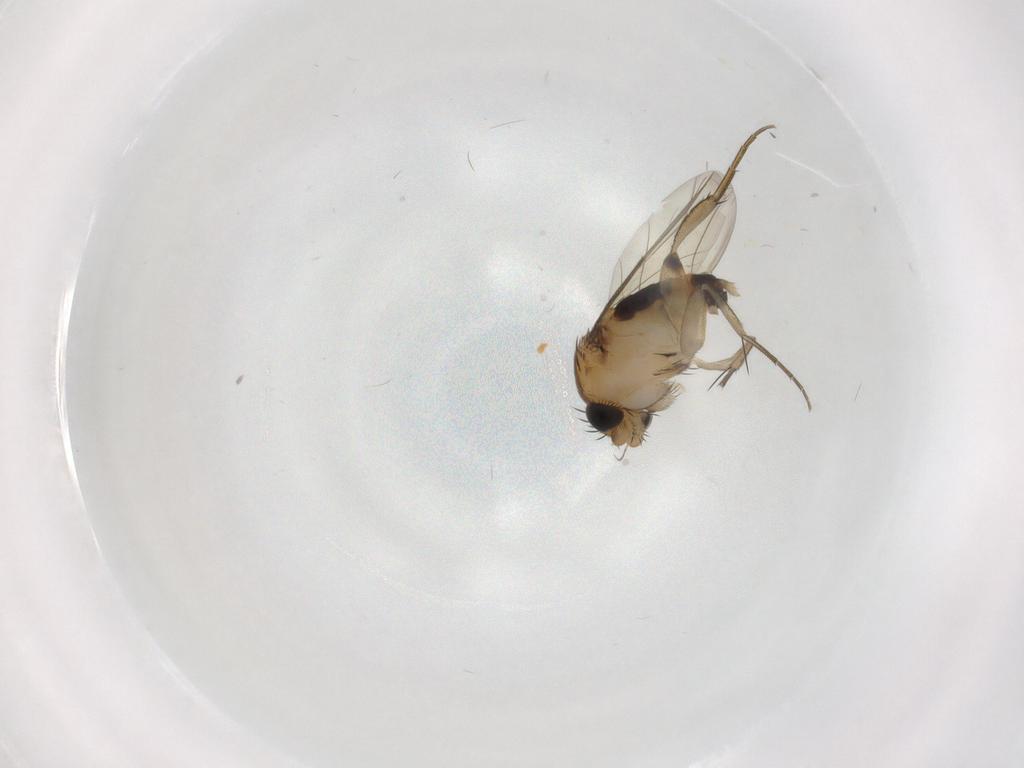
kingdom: Animalia
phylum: Arthropoda
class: Insecta
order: Diptera
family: Phoridae
